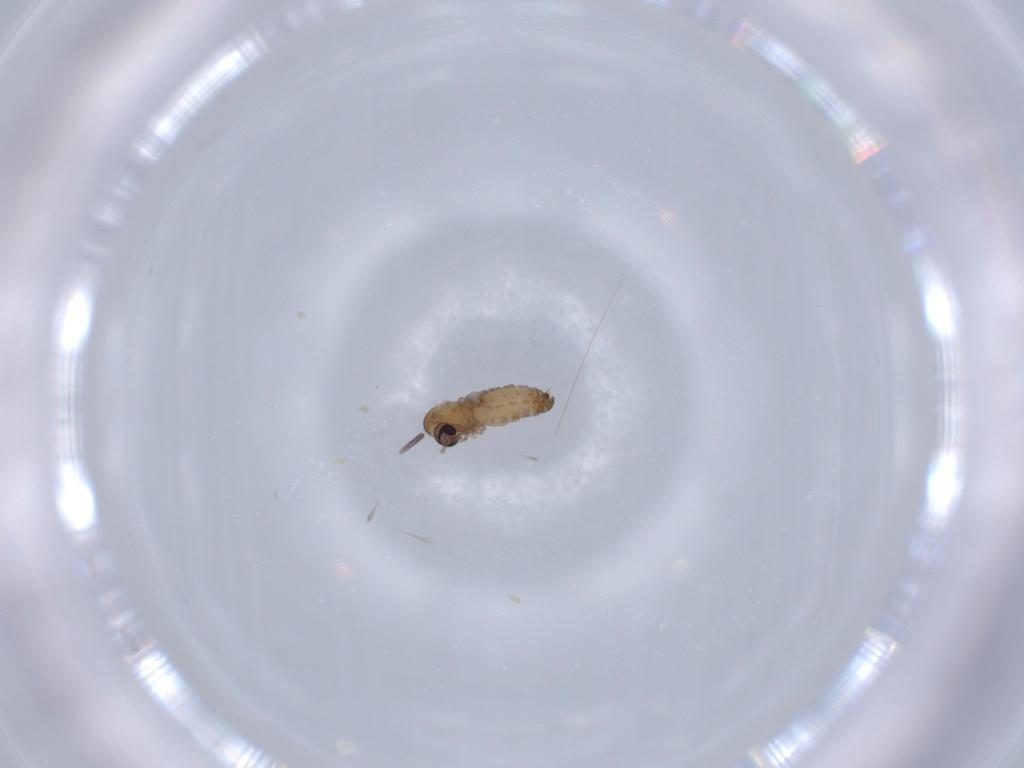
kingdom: Animalia
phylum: Arthropoda
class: Insecta
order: Diptera
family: Psychodidae
